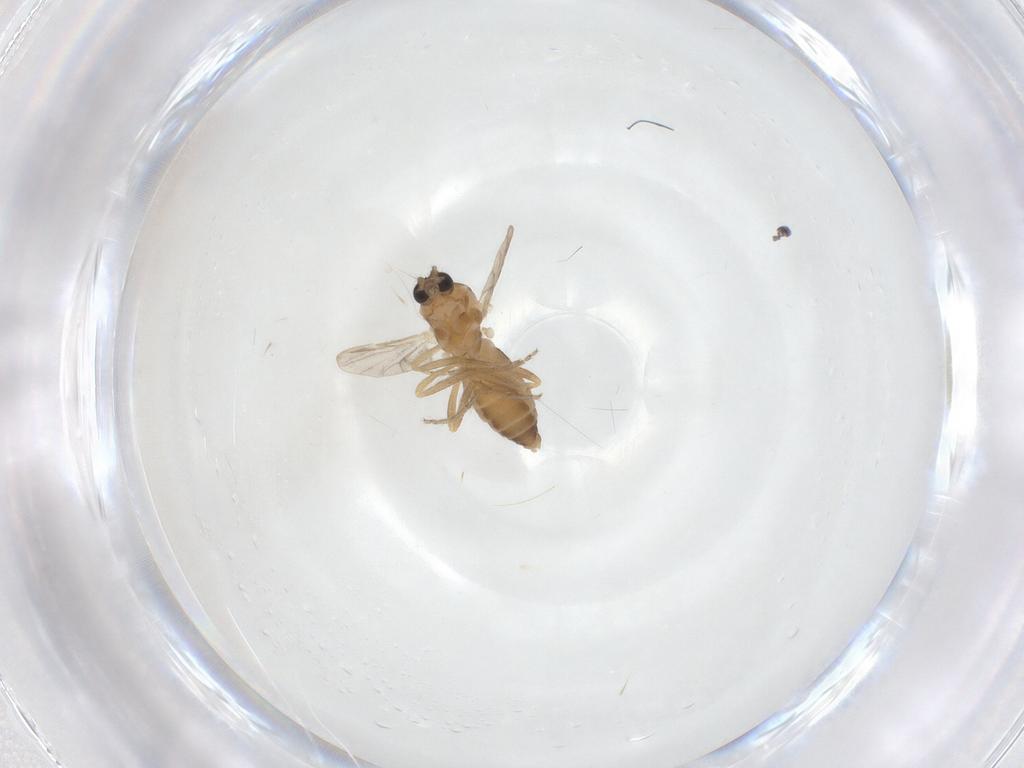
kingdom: Animalia
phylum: Arthropoda
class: Insecta
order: Diptera
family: Ceratopogonidae
